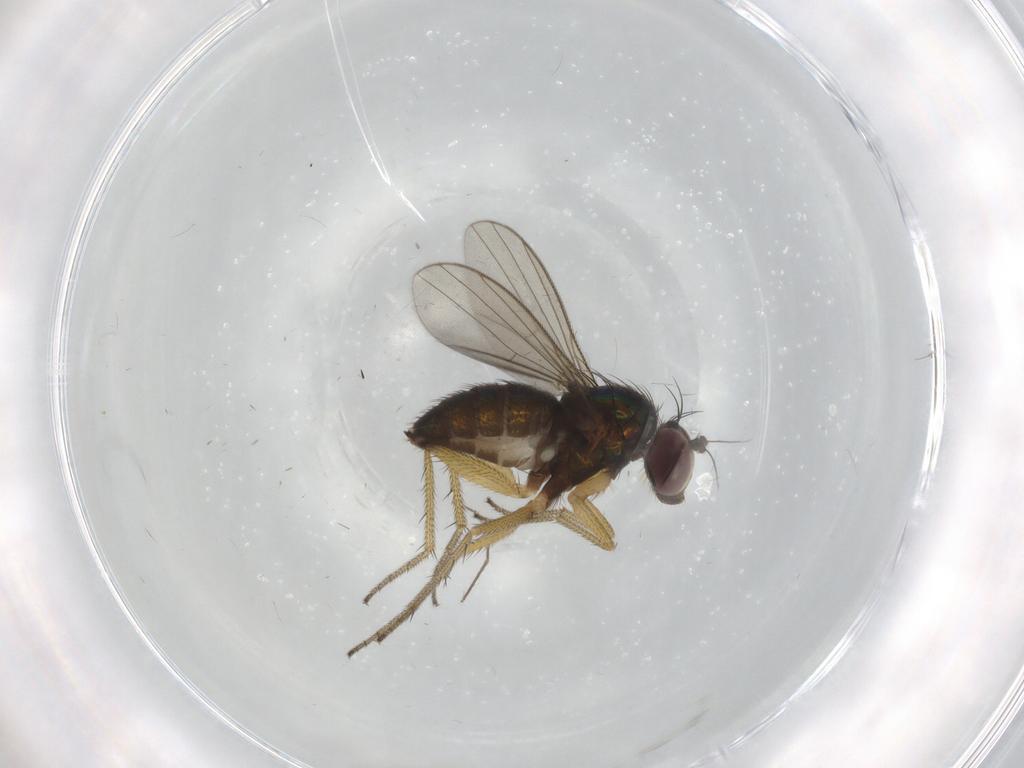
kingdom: Animalia
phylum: Arthropoda
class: Insecta
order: Diptera
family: Dolichopodidae
